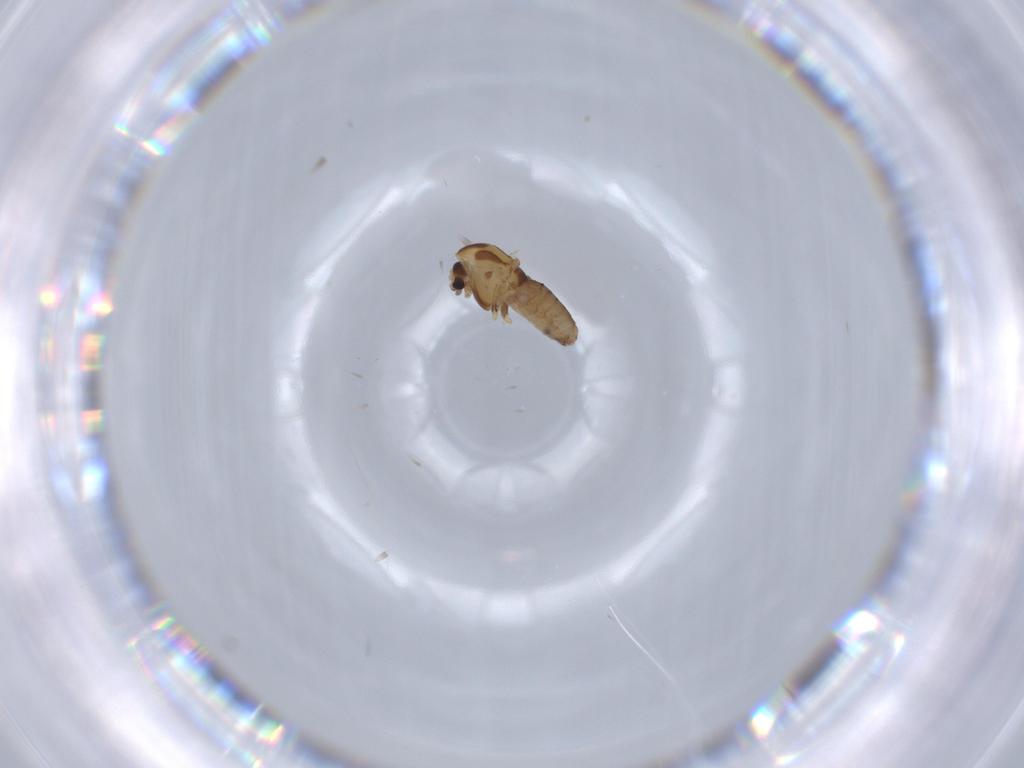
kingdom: Animalia
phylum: Arthropoda
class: Insecta
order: Diptera
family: Chironomidae
